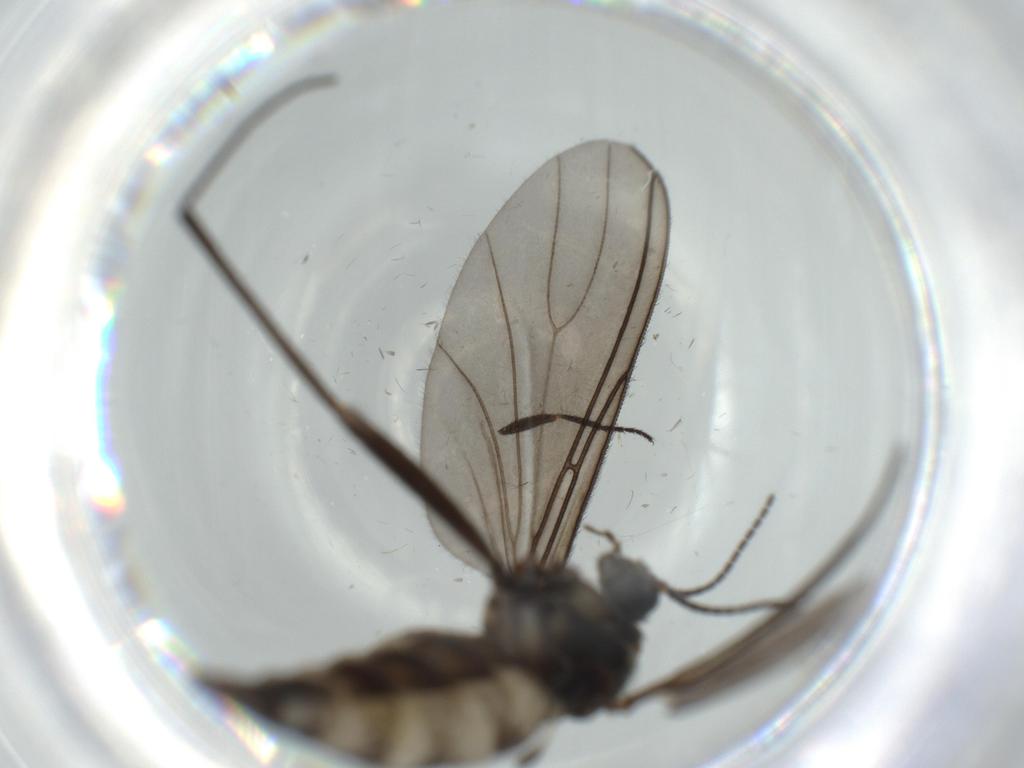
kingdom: Animalia
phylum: Arthropoda
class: Insecta
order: Diptera
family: Sciaridae
